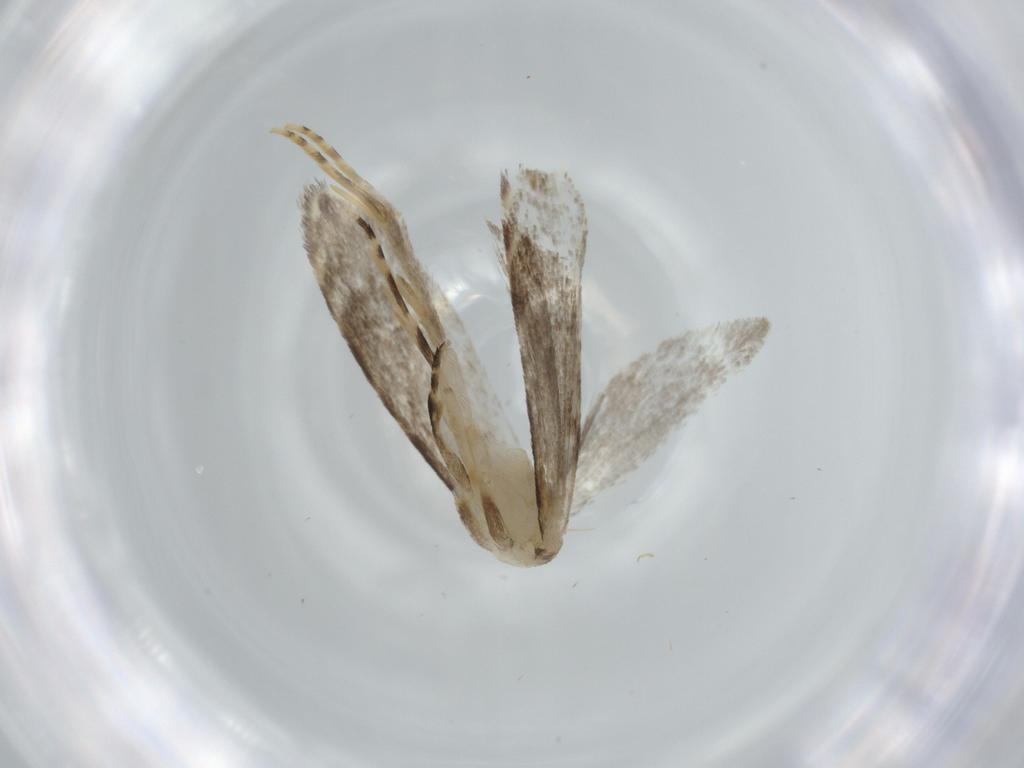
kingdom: Animalia
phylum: Arthropoda
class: Insecta
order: Lepidoptera
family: Tineidae
